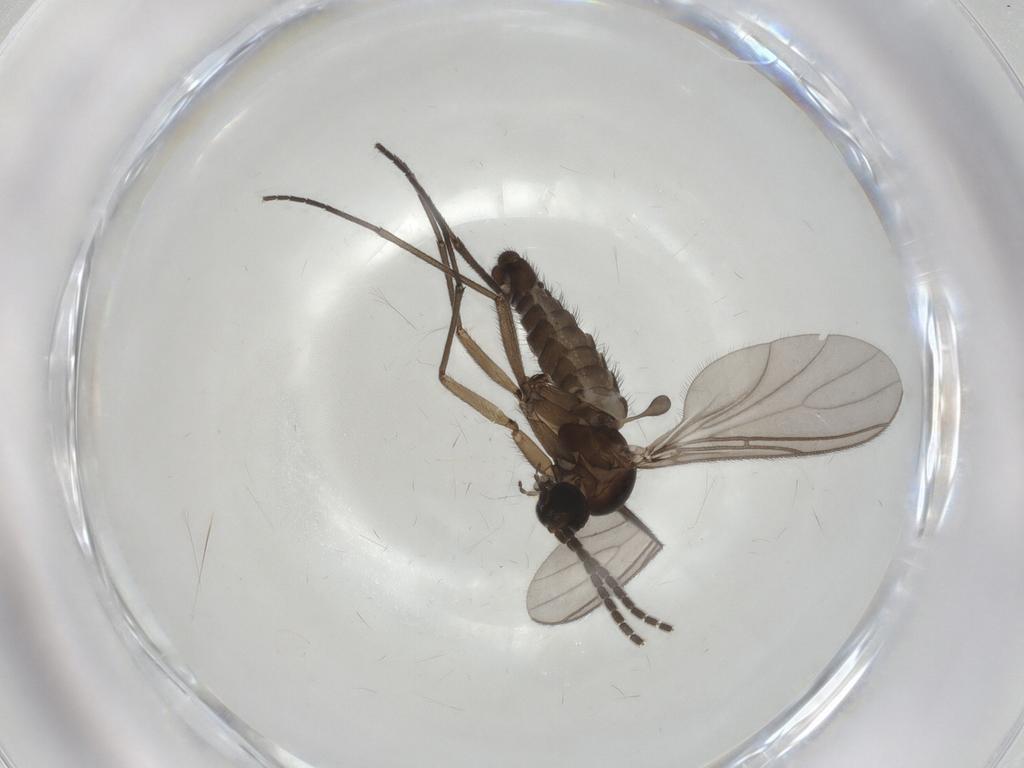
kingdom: Animalia
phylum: Arthropoda
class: Insecta
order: Diptera
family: Sciaridae
